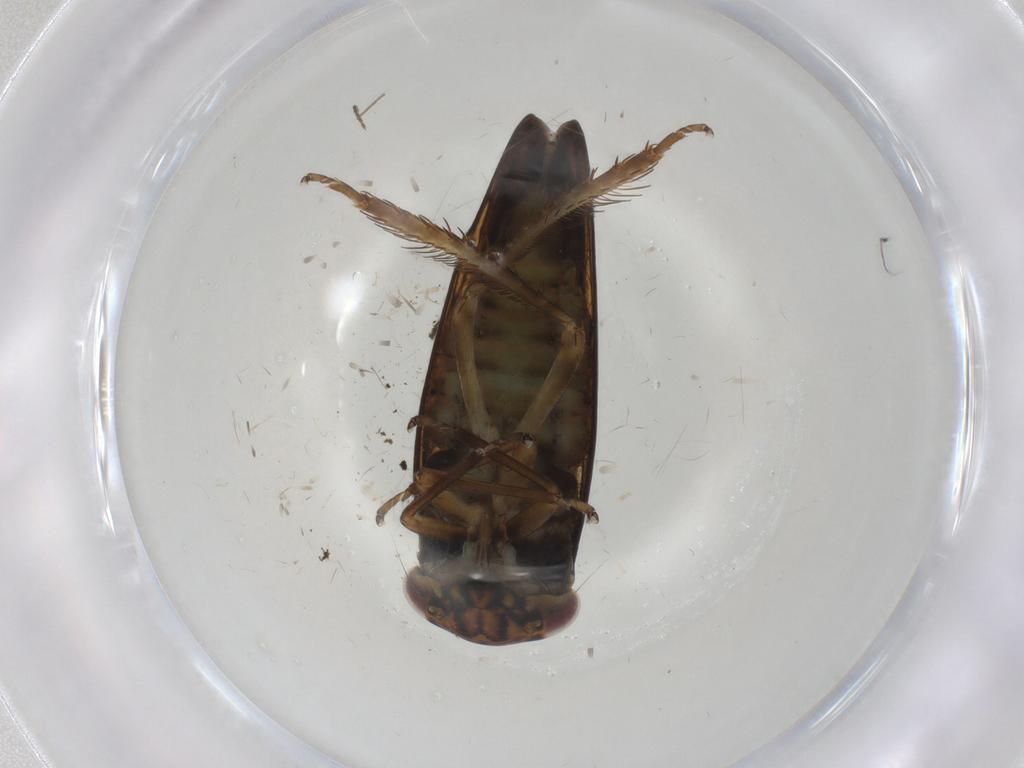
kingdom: Animalia
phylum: Arthropoda
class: Insecta
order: Hemiptera
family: Cicadellidae
